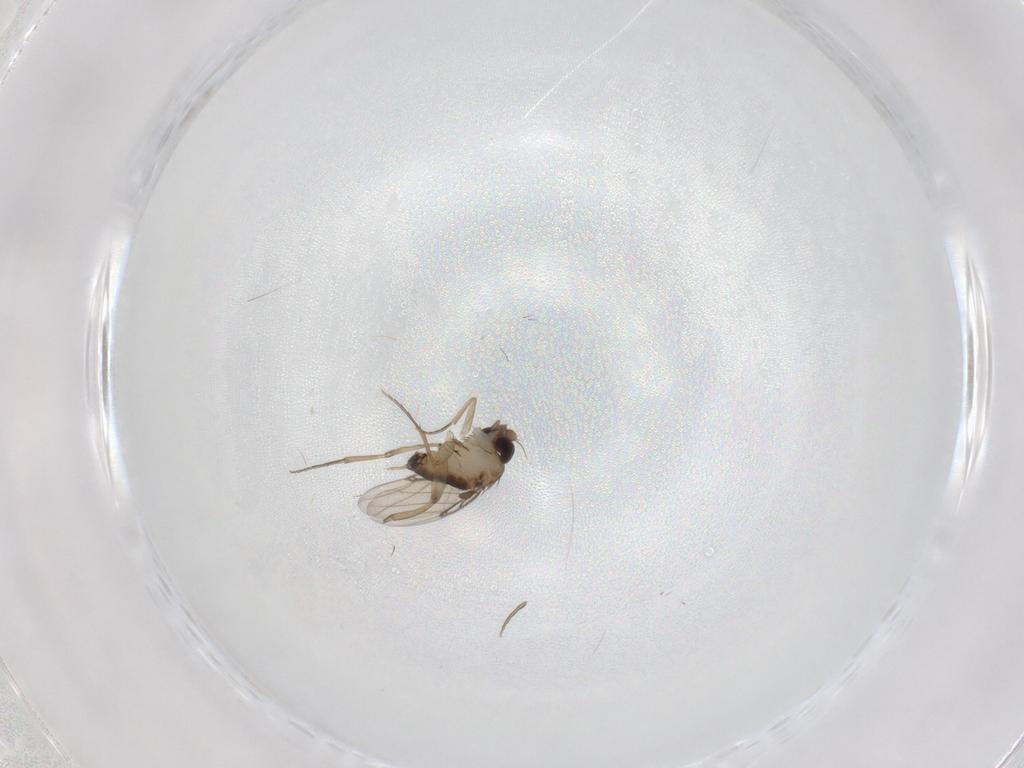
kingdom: Animalia
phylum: Arthropoda
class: Insecta
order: Diptera
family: Phoridae
